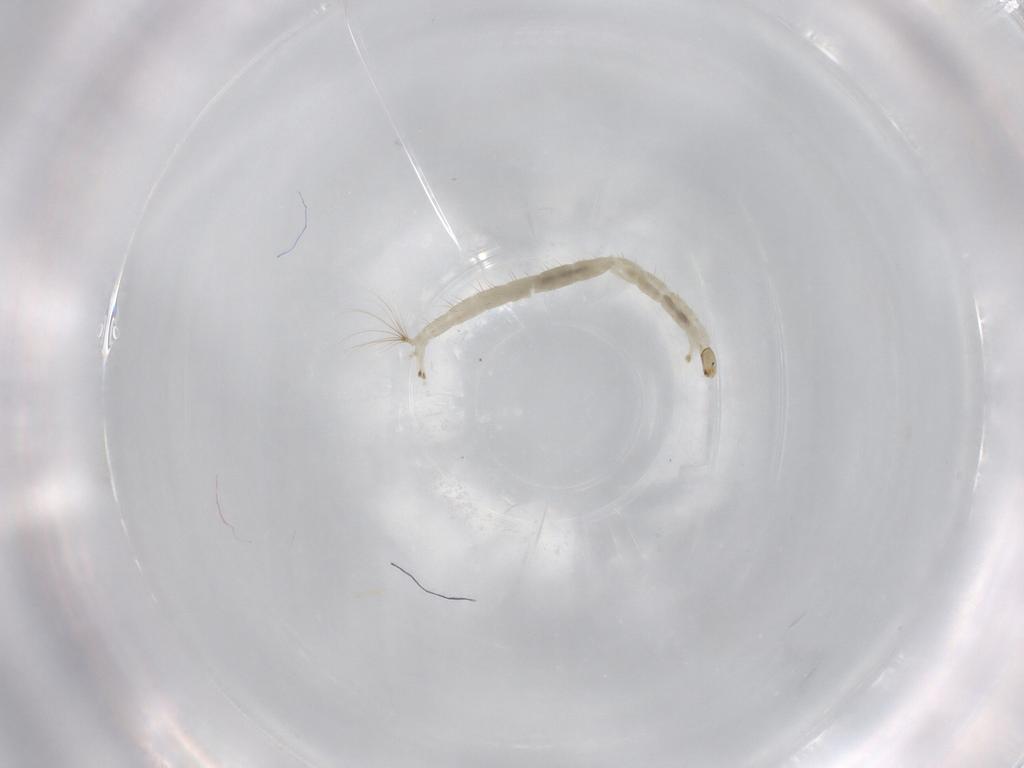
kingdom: Animalia
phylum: Arthropoda
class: Insecta
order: Diptera
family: Chironomidae
